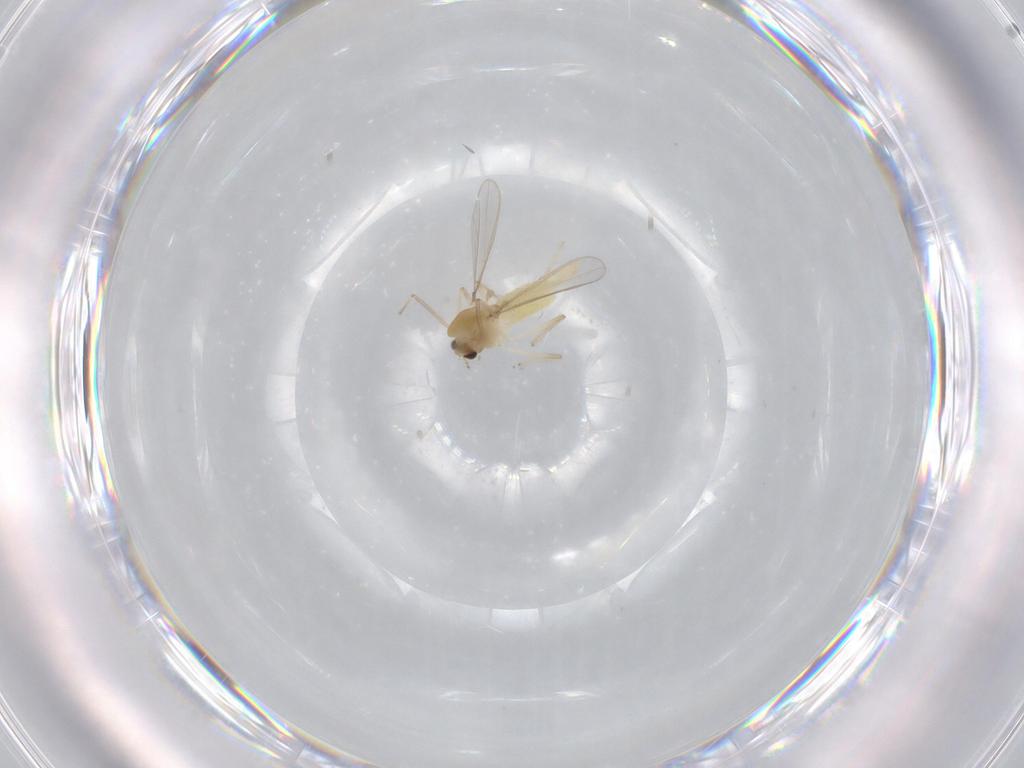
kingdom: Animalia
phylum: Arthropoda
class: Insecta
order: Diptera
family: Chironomidae
